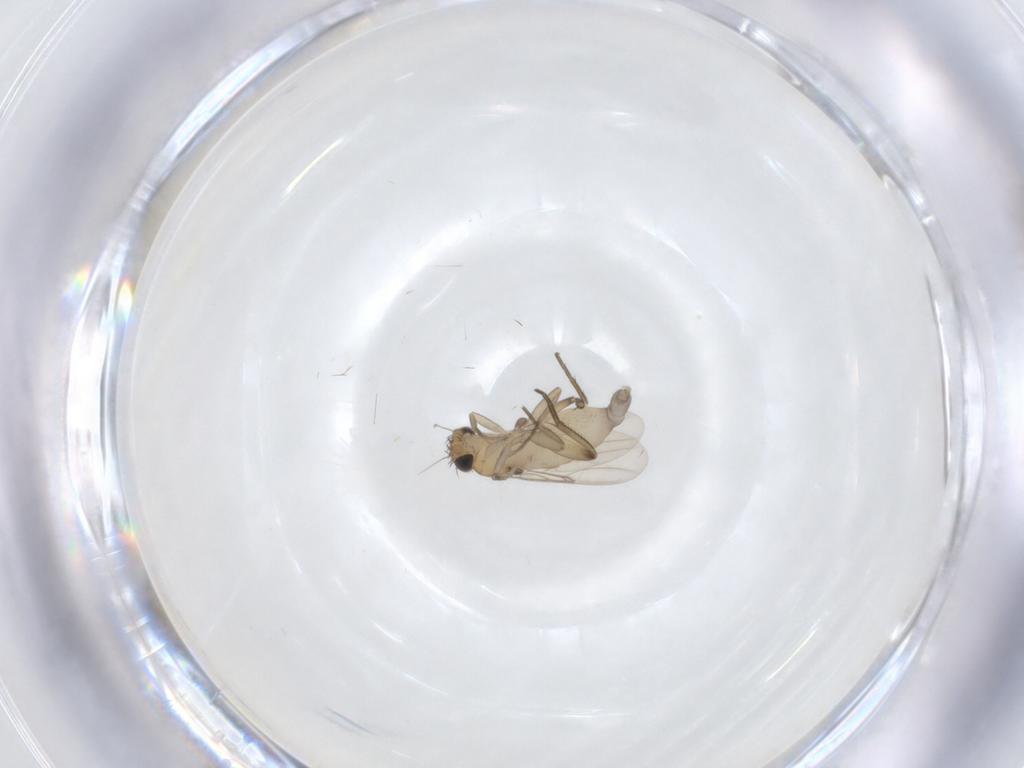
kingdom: Animalia
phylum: Arthropoda
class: Insecta
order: Diptera
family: Phoridae
